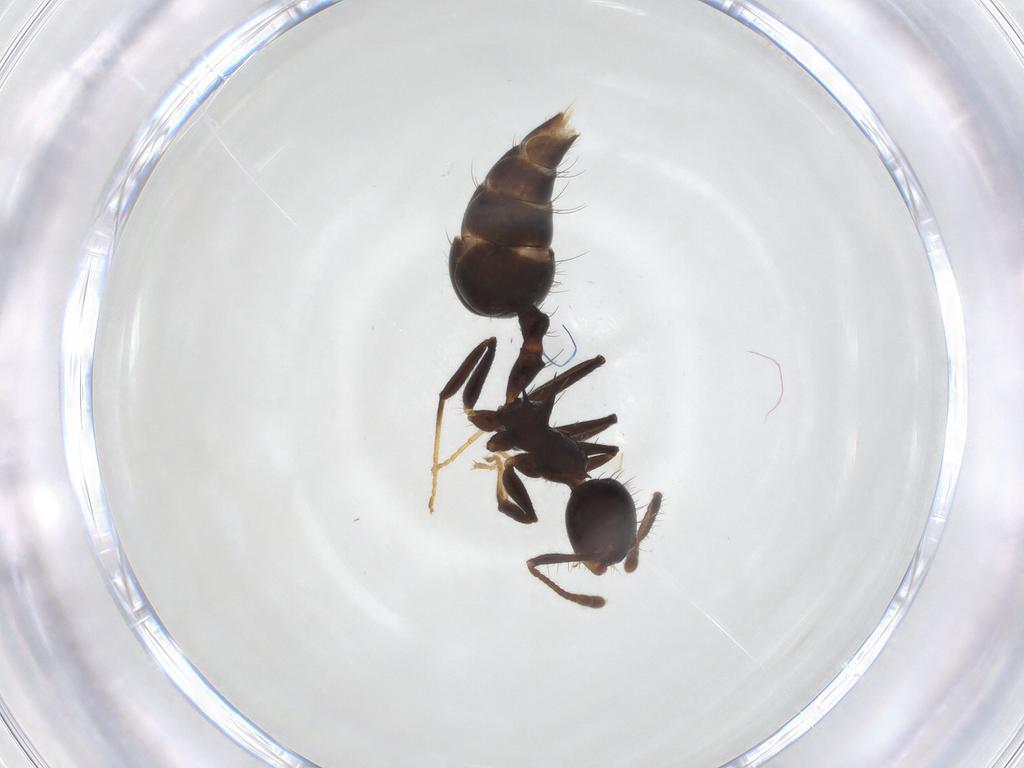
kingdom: Animalia
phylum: Arthropoda
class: Insecta
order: Hymenoptera
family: Formicidae
